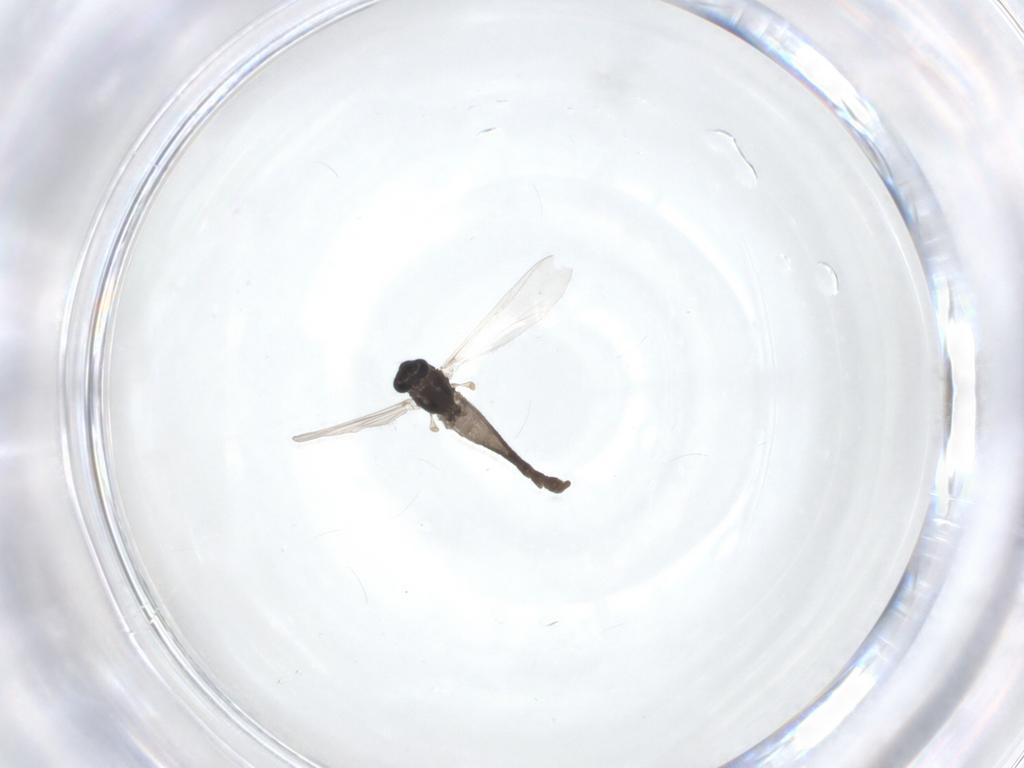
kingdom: Animalia
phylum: Arthropoda
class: Insecta
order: Diptera
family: Chironomidae
